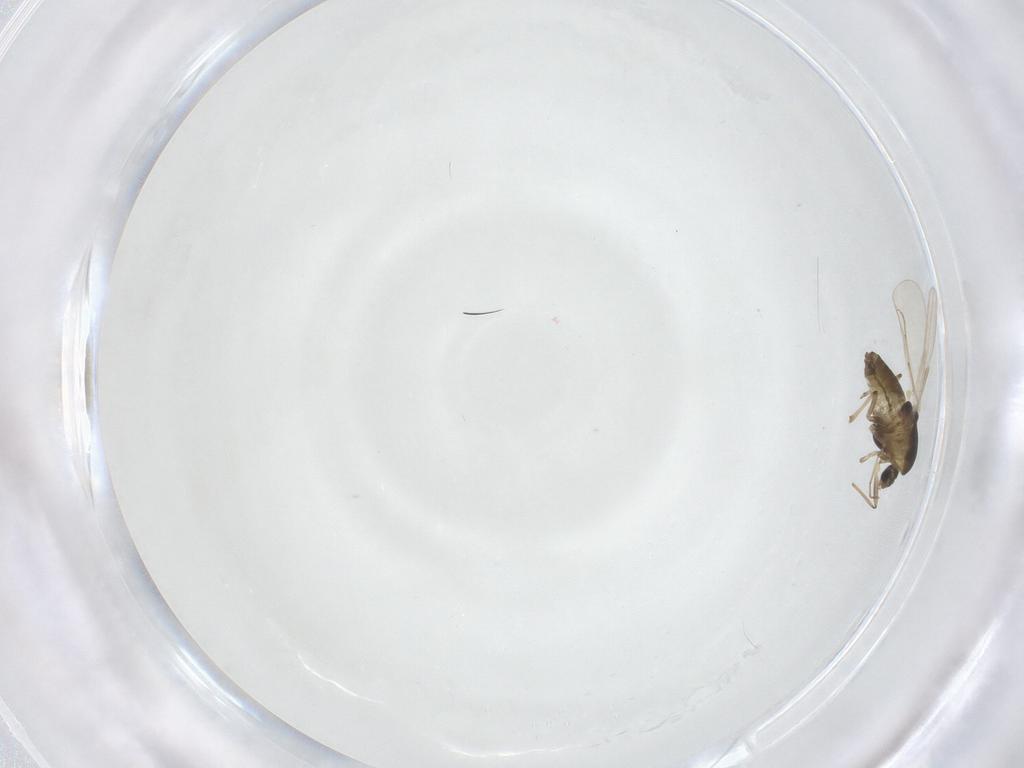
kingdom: Animalia
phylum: Arthropoda
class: Insecta
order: Diptera
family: Chironomidae
